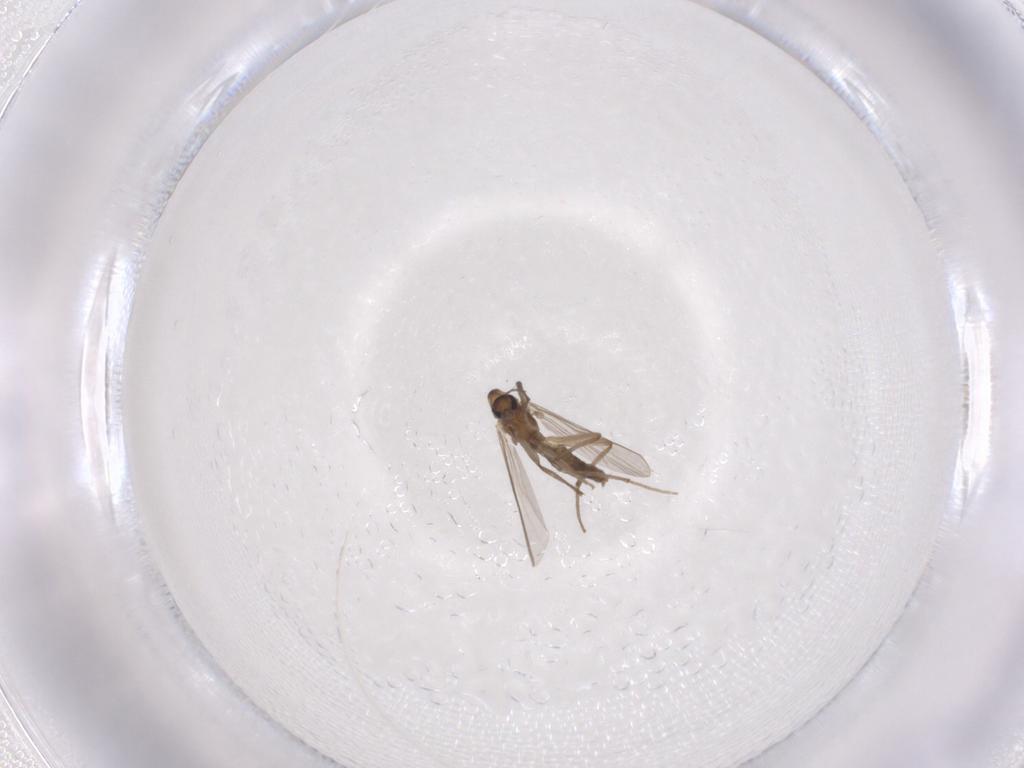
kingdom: Animalia
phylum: Arthropoda
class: Insecta
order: Diptera
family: Chironomidae
